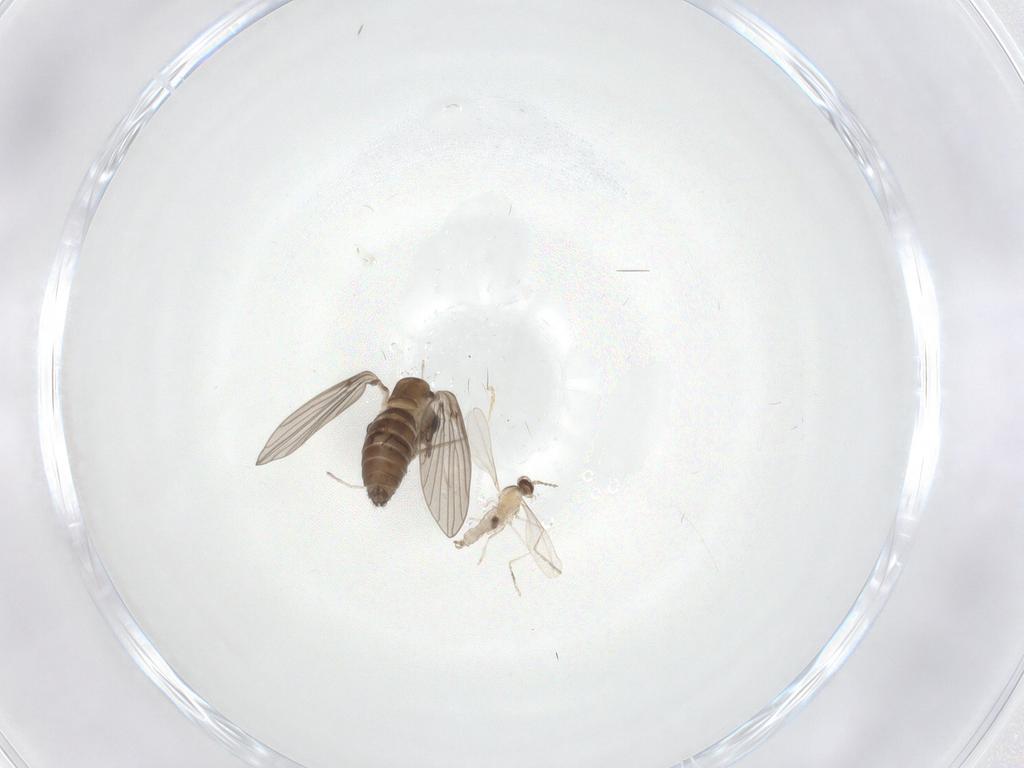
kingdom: Animalia
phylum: Arthropoda
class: Insecta
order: Diptera
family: Psychodidae
